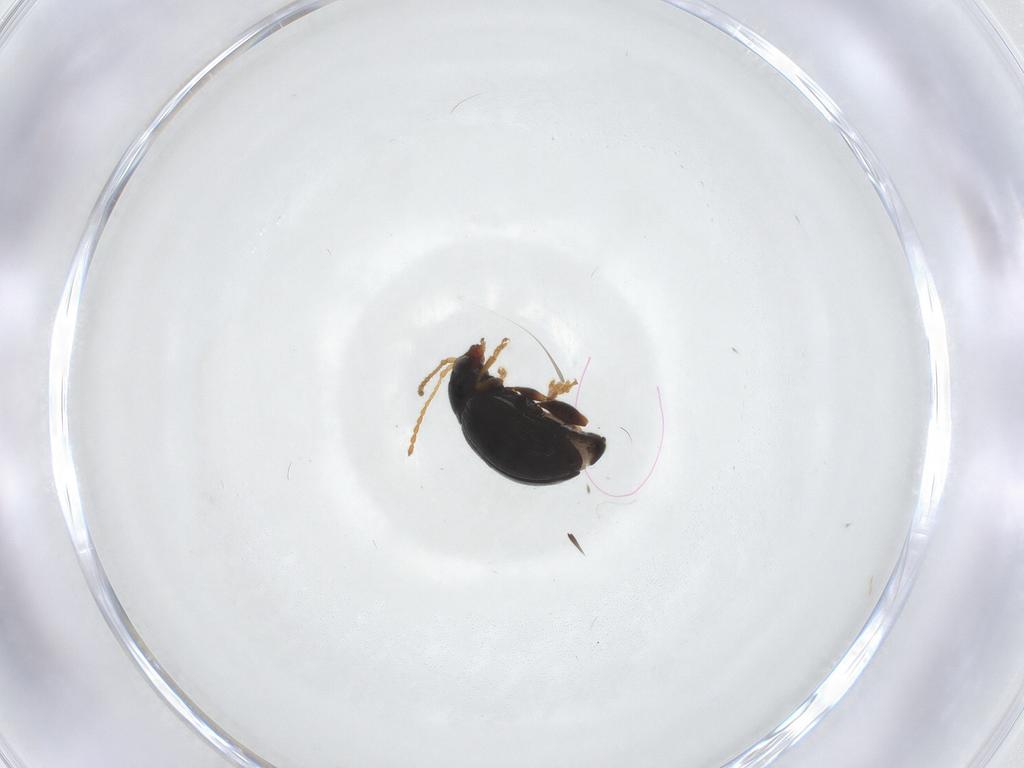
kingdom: Animalia
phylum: Arthropoda
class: Insecta
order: Coleoptera
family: Chrysomelidae
